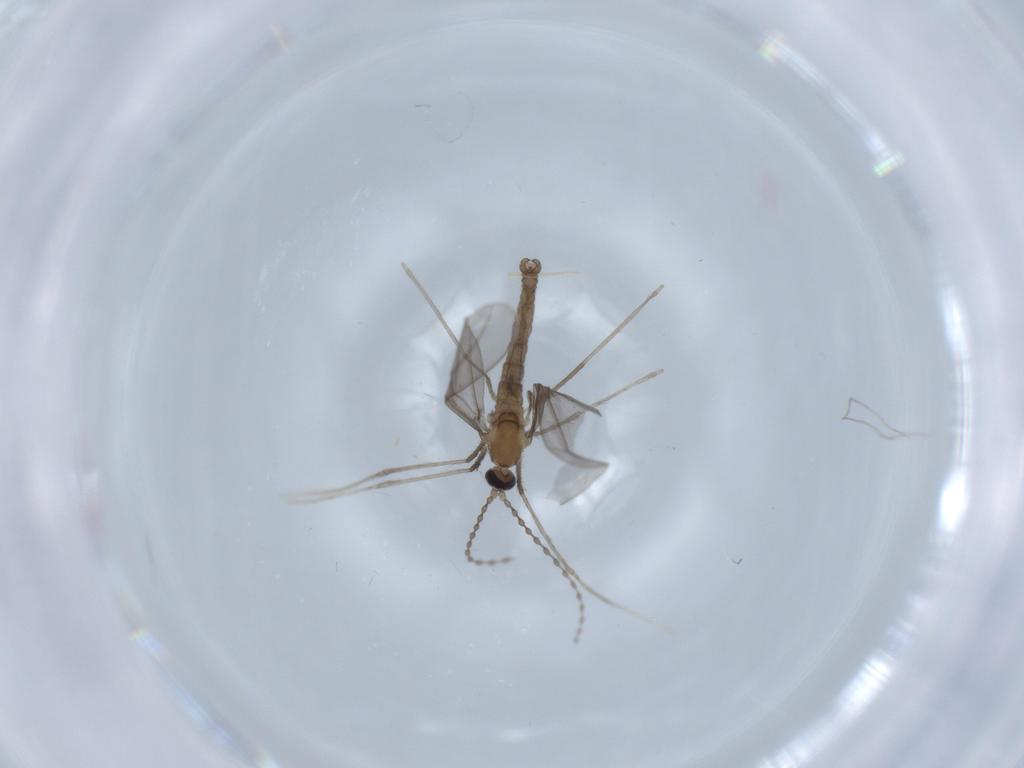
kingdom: Animalia
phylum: Arthropoda
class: Insecta
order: Diptera
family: Cecidomyiidae
